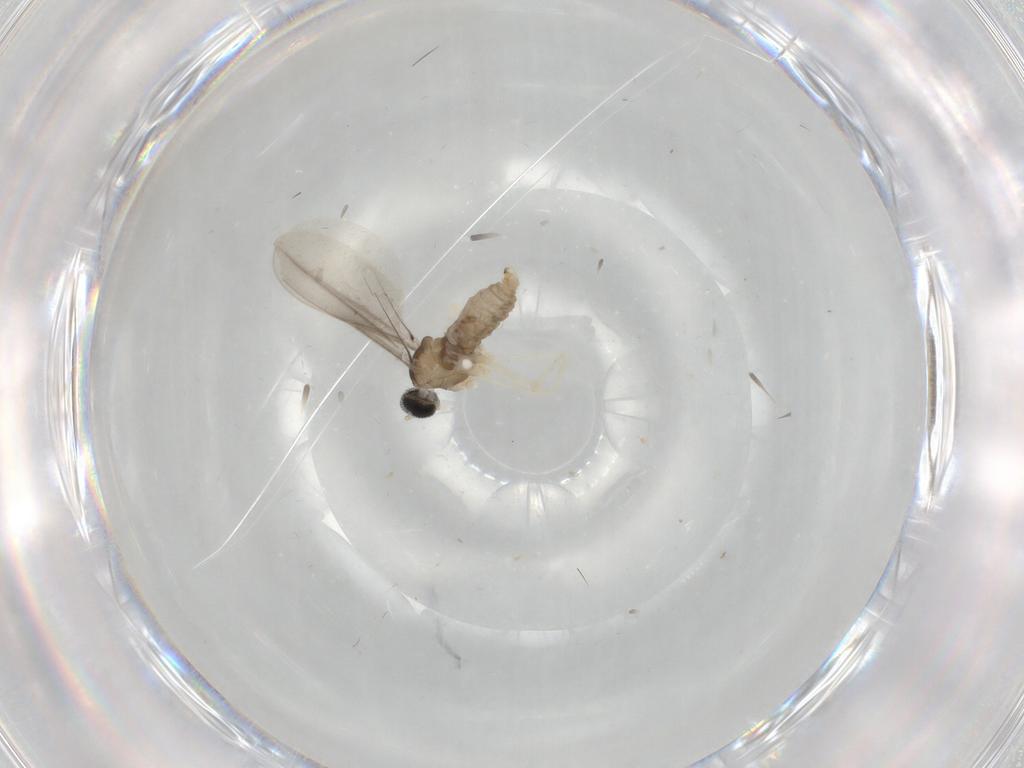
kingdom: Animalia
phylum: Arthropoda
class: Insecta
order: Diptera
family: Cecidomyiidae
